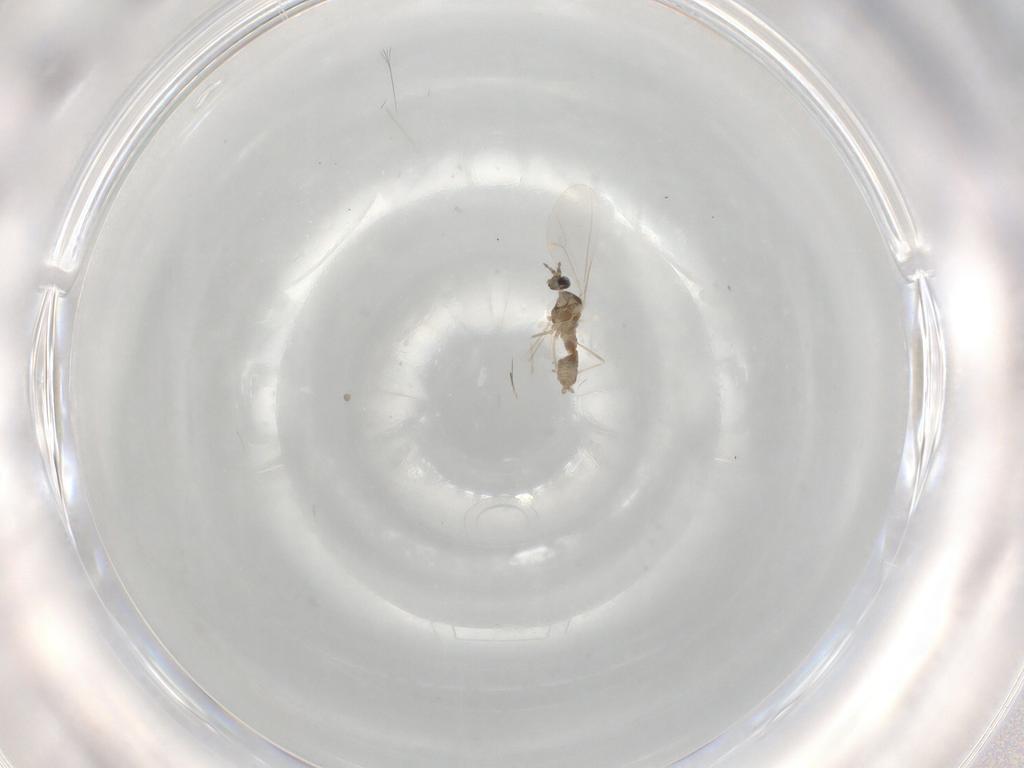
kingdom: Animalia
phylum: Arthropoda
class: Insecta
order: Diptera
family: Cecidomyiidae
